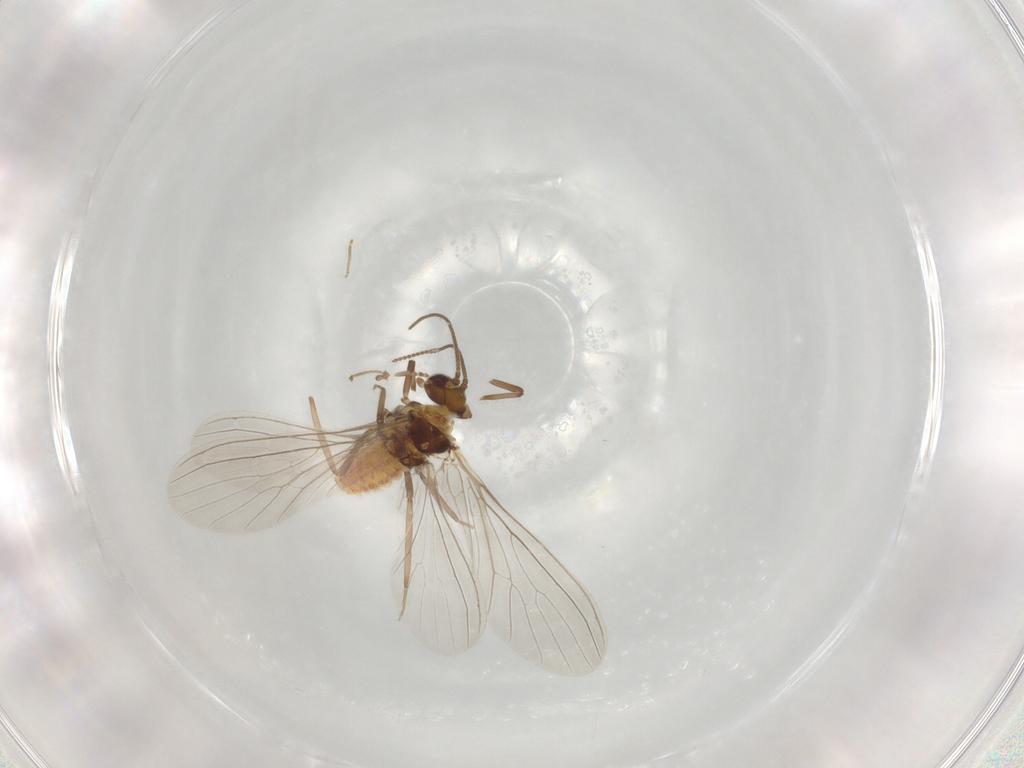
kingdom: Animalia
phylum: Arthropoda
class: Insecta
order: Neuroptera
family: Coniopterygidae
